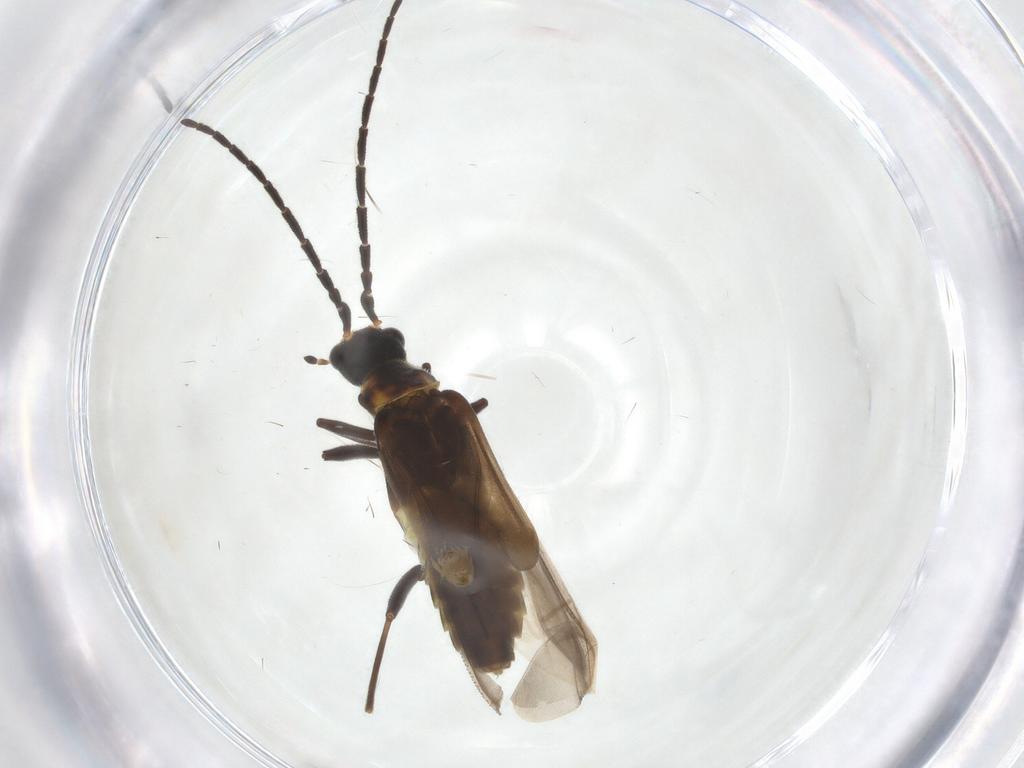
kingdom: Animalia
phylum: Arthropoda
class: Insecta
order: Coleoptera
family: Cantharidae
